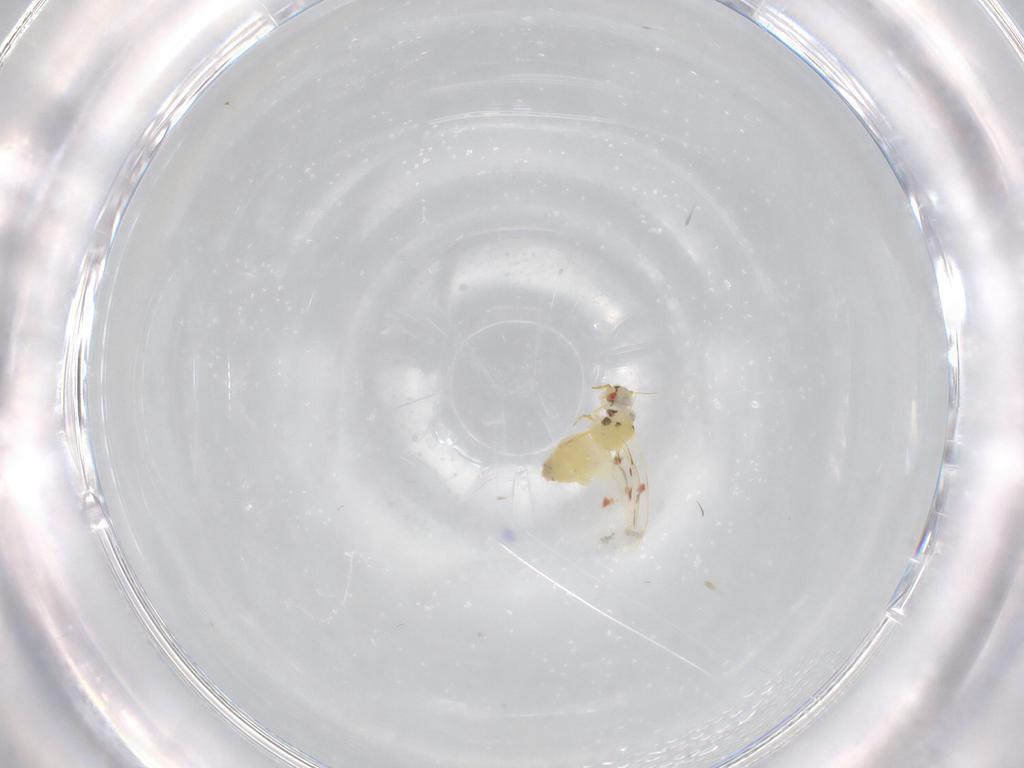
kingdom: Animalia
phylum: Arthropoda
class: Insecta
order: Hemiptera
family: Aleyrodidae
